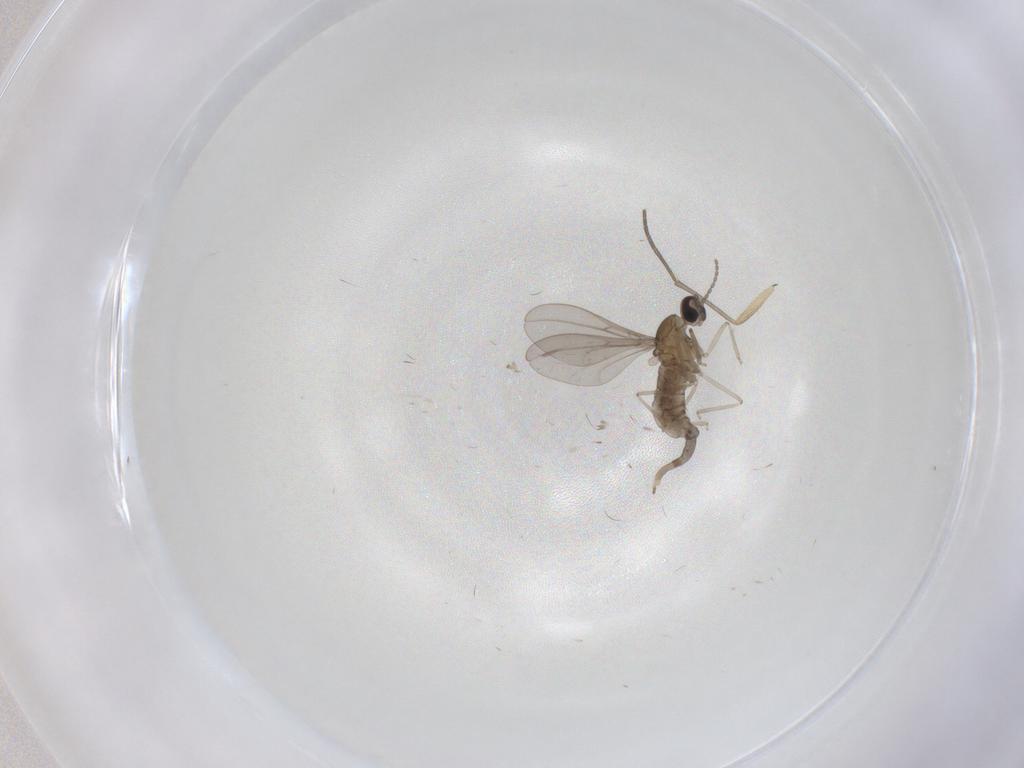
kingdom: Animalia
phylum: Arthropoda
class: Insecta
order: Diptera
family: Cecidomyiidae
